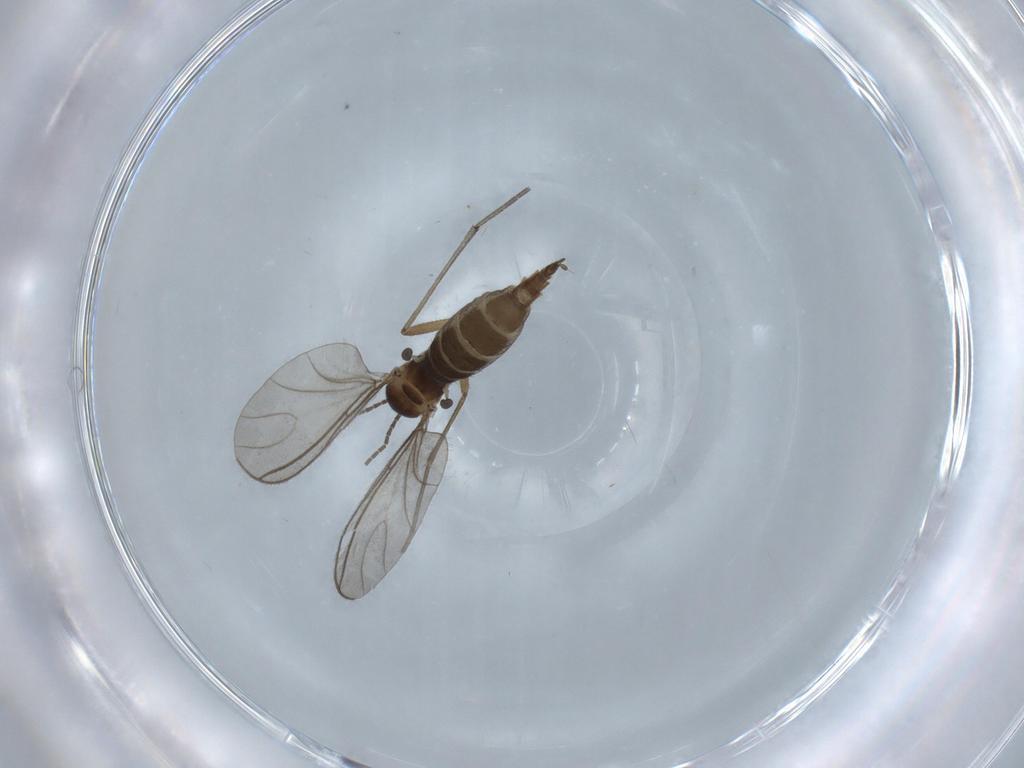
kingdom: Animalia
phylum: Arthropoda
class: Insecta
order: Diptera
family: Sciaridae
